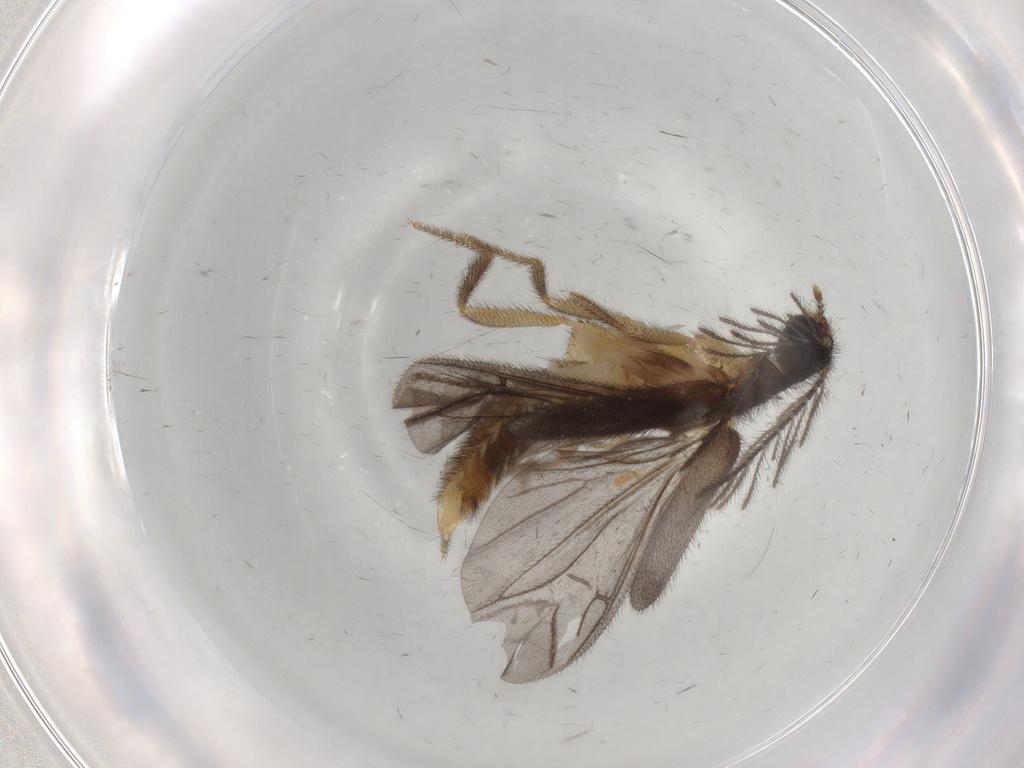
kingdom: Animalia
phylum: Arthropoda
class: Insecta
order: Coleoptera
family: Phengodidae
